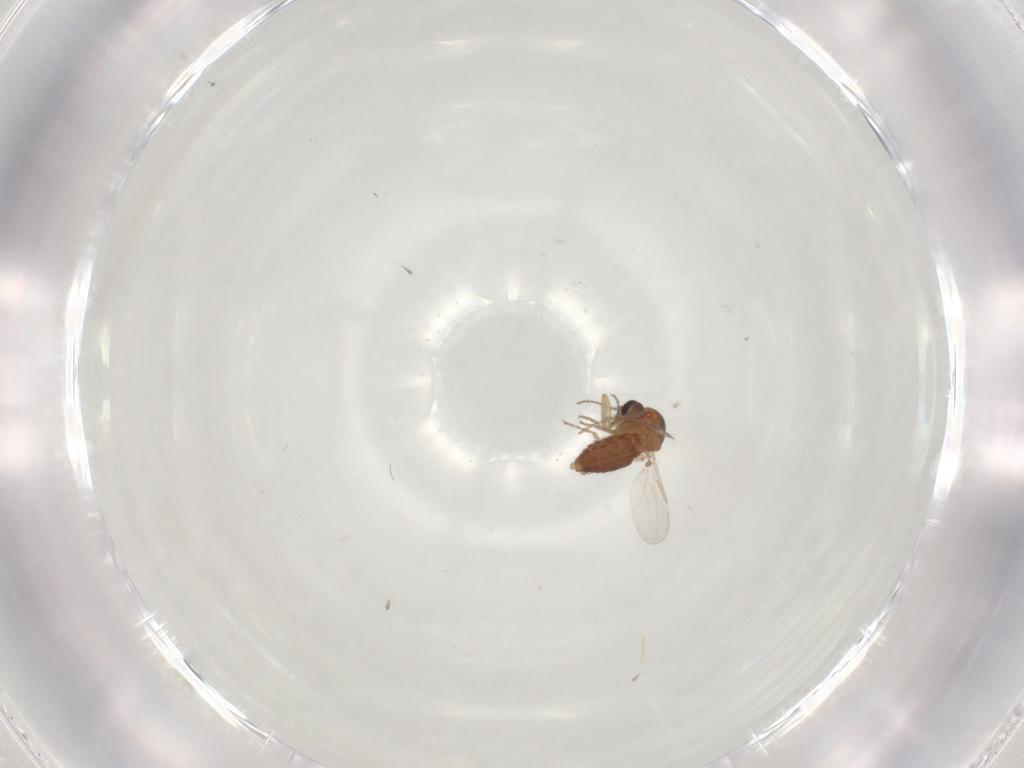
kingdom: Animalia
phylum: Arthropoda
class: Insecta
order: Diptera
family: Ceratopogonidae
